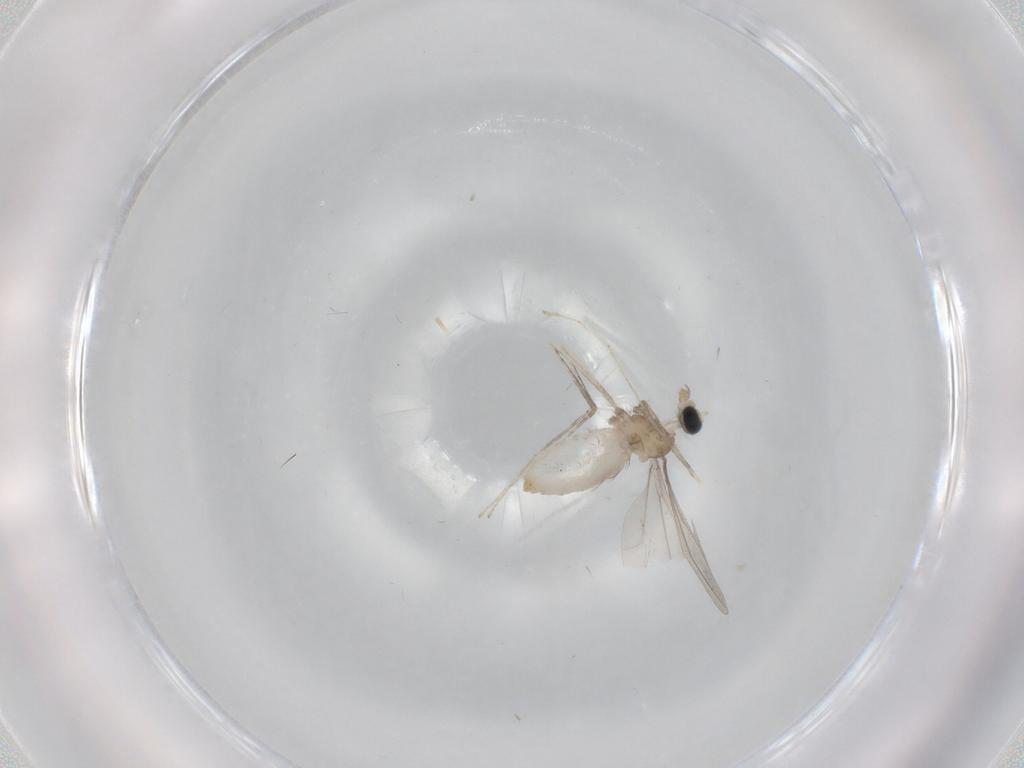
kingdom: Animalia
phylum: Arthropoda
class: Insecta
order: Diptera
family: Cecidomyiidae
